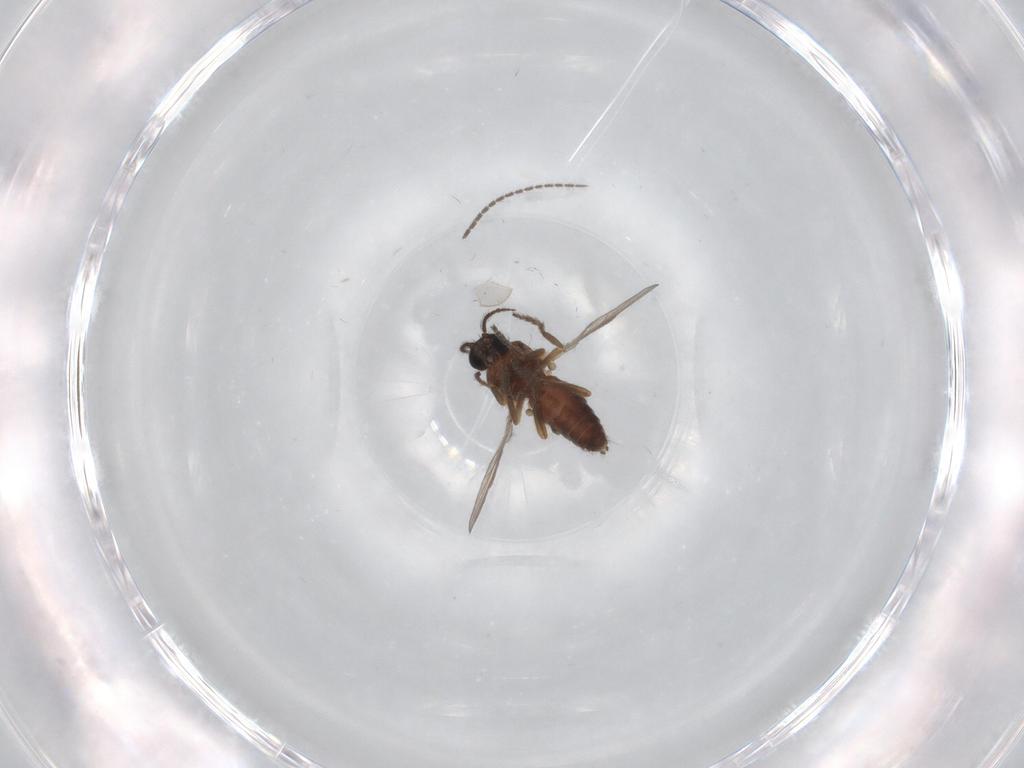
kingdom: Animalia
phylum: Arthropoda
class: Insecta
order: Diptera
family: Ceratopogonidae
